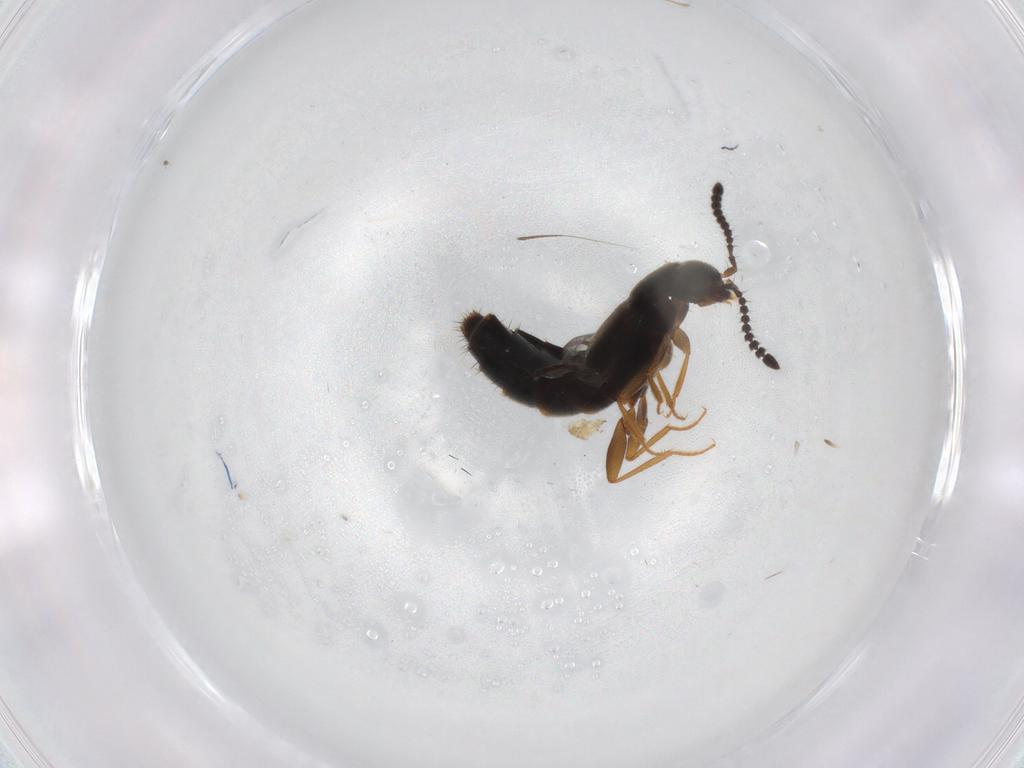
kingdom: Animalia
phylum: Arthropoda
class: Insecta
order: Coleoptera
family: Staphylinidae
